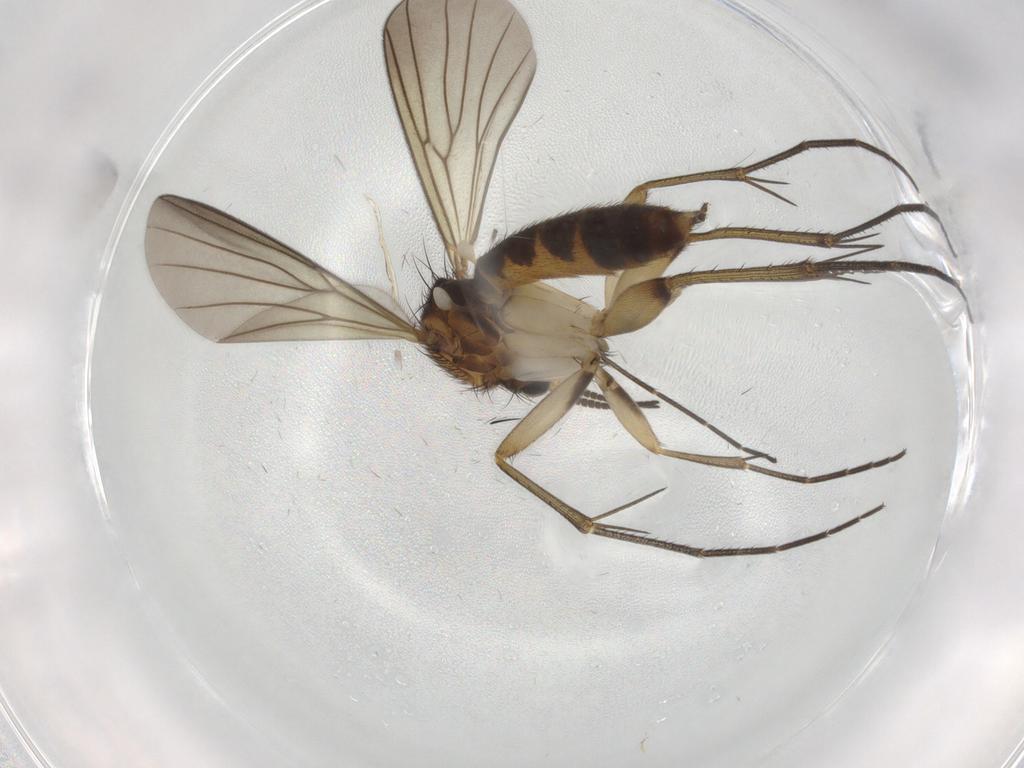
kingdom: Animalia
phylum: Arthropoda
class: Insecta
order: Diptera
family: Mycetophilidae
